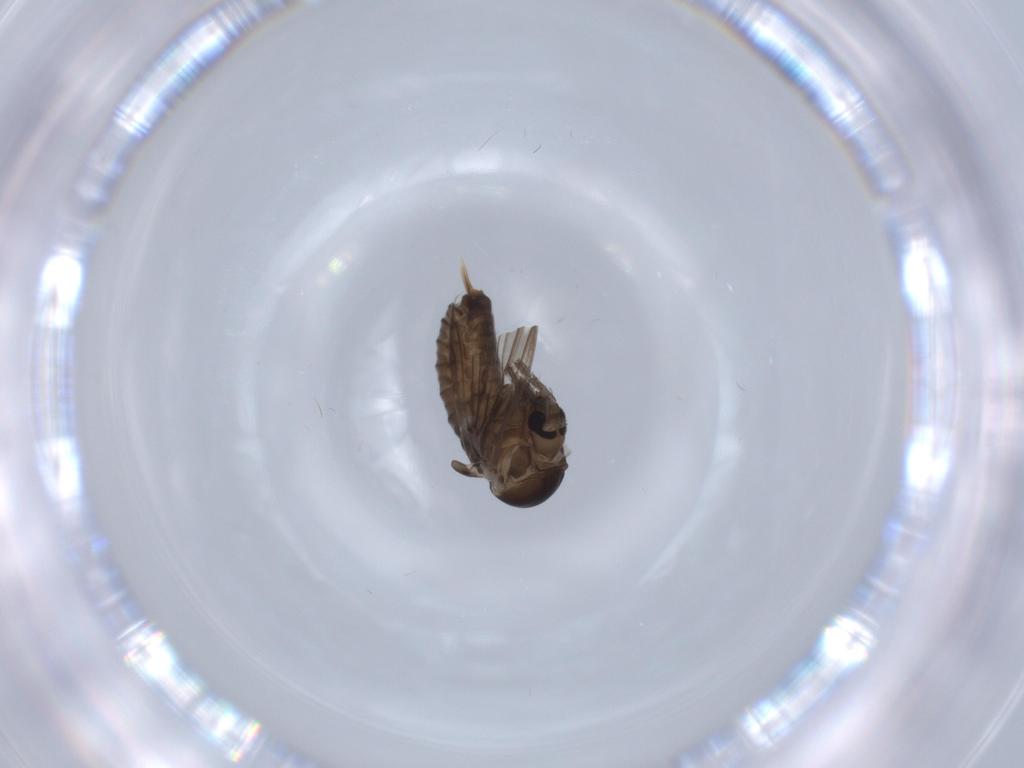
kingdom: Animalia
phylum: Arthropoda
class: Insecta
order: Diptera
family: Psychodidae
